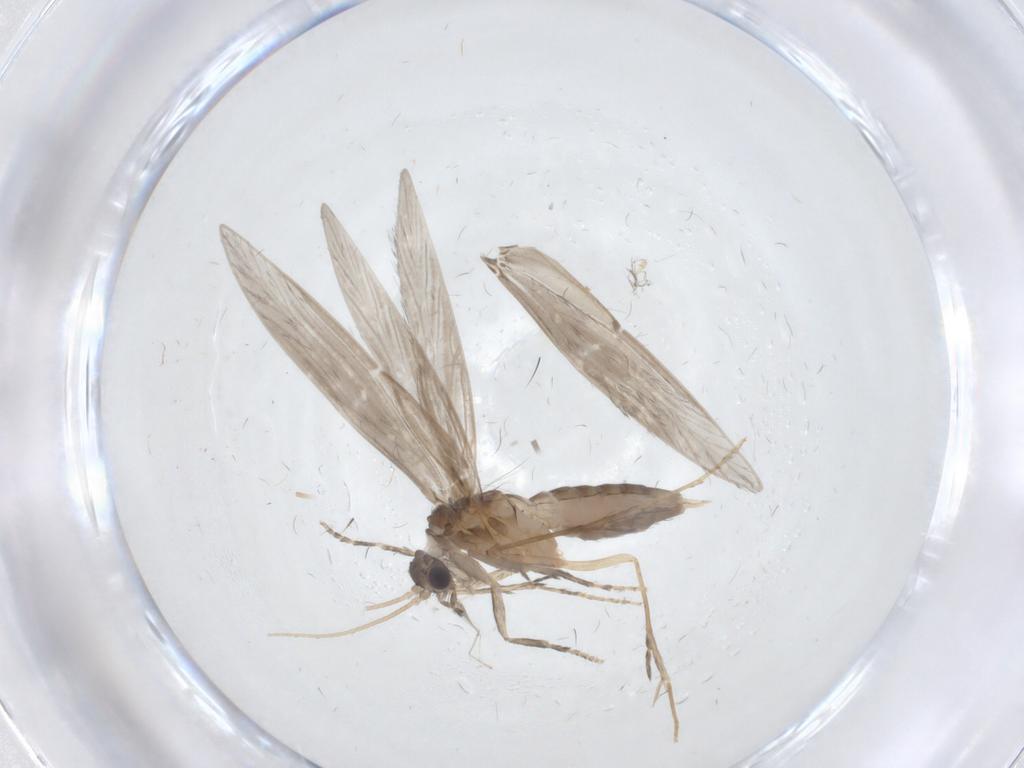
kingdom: Animalia
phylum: Arthropoda
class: Insecta
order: Trichoptera
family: Hydroptilidae
